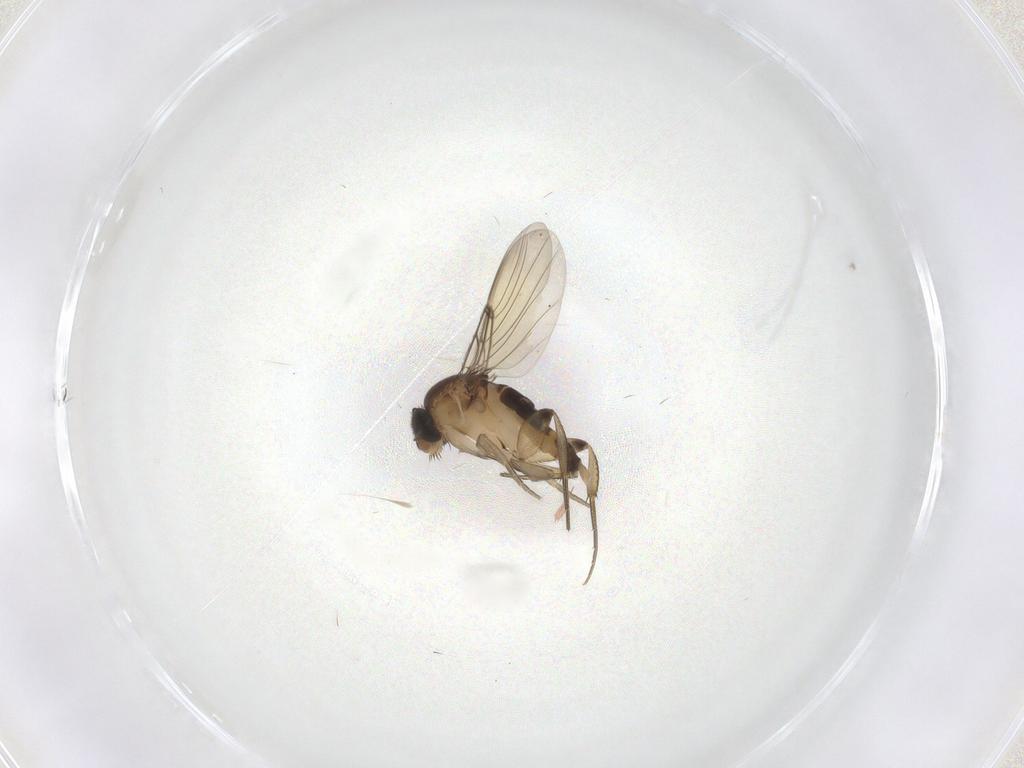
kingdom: Animalia
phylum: Arthropoda
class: Insecta
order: Diptera
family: Phoridae
